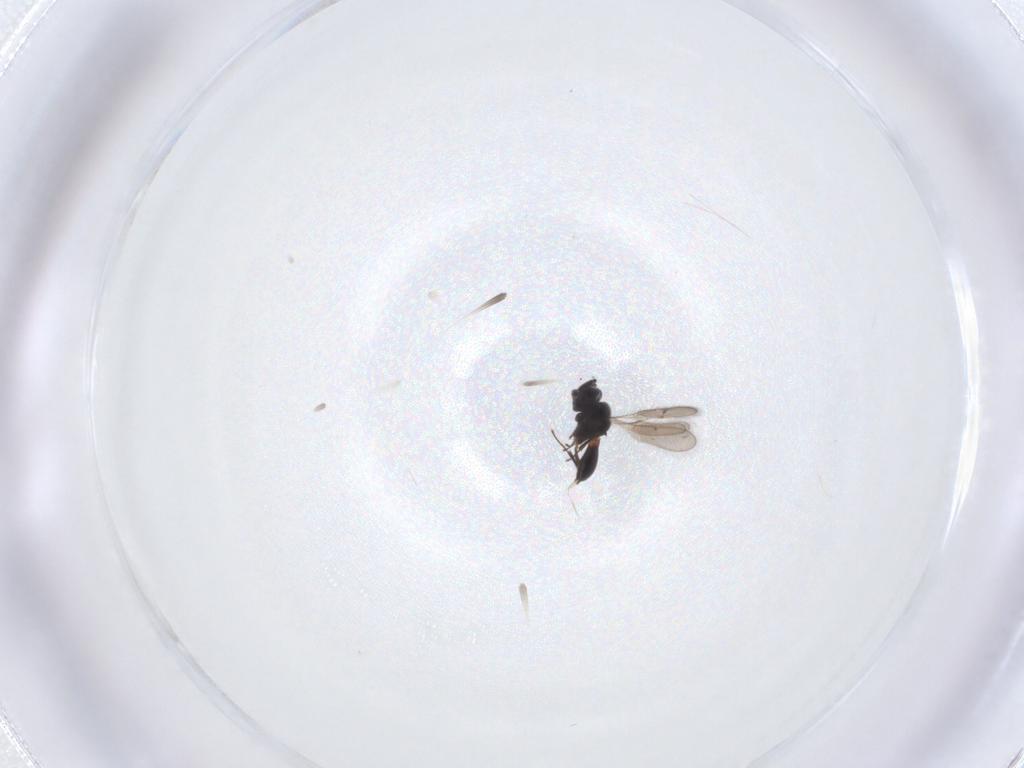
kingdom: Animalia
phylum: Arthropoda
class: Insecta
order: Hymenoptera
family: Scelionidae
